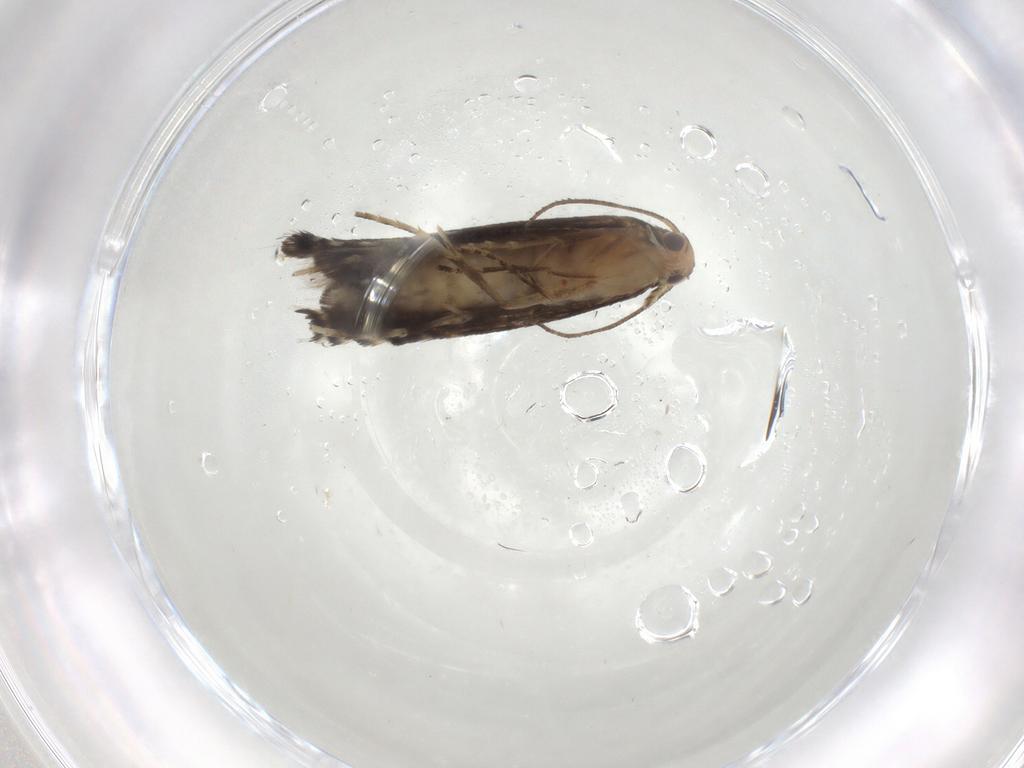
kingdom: Animalia
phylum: Arthropoda
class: Insecta
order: Lepidoptera
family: Glyphipterigidae
